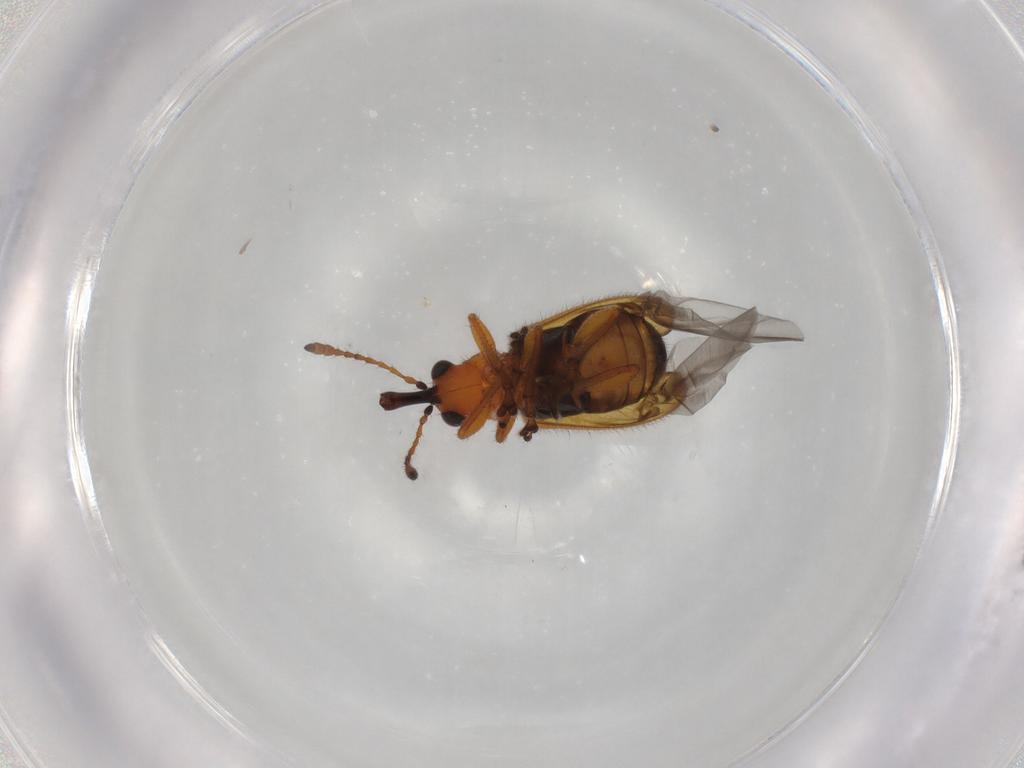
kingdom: Animalia
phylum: Arthropoda
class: Insecta
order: Coleoptera
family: Attelabidae
